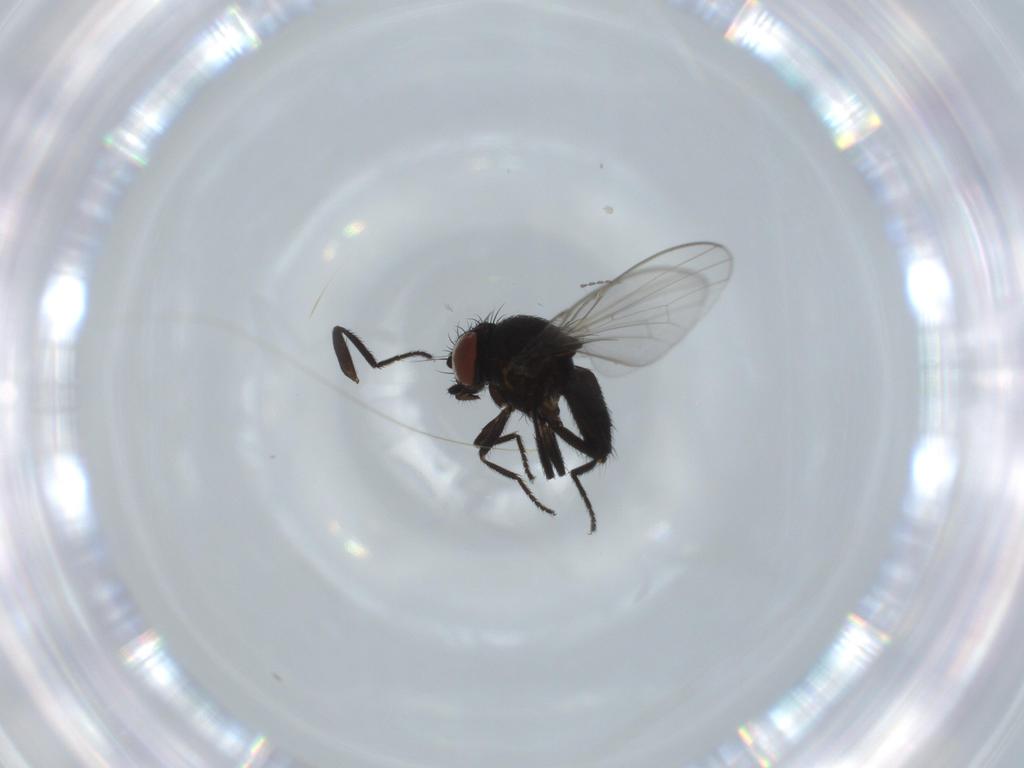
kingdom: Animalia
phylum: Arthropoda
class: Insecta
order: Diptera
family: Milichiidae
